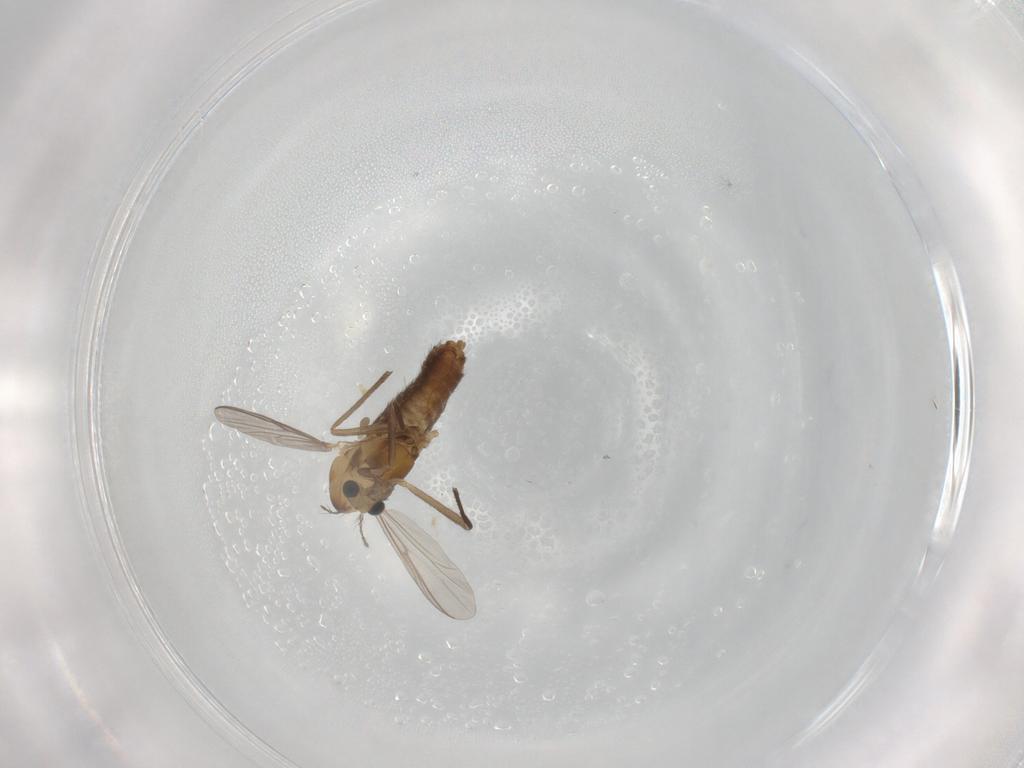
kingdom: Animalia
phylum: Arthropoda
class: Insecta
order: Diptera
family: Chironomidae
